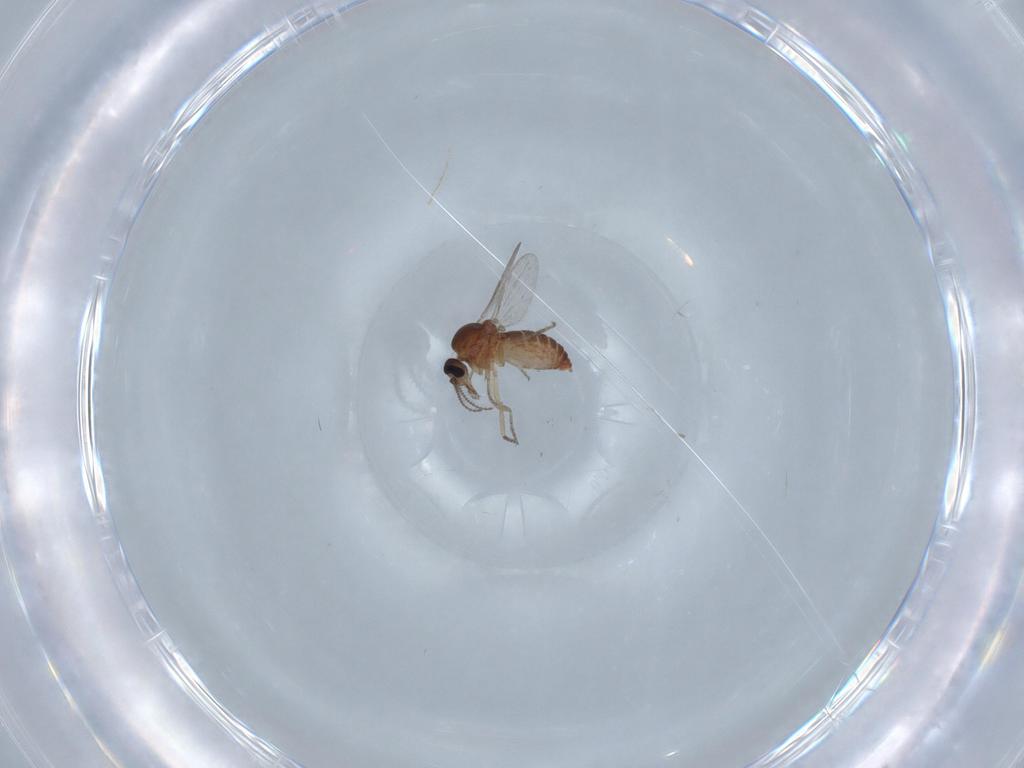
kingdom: Animalia
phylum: Arthropoda
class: Insecta
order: Diptera
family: Ceratopogonidae
